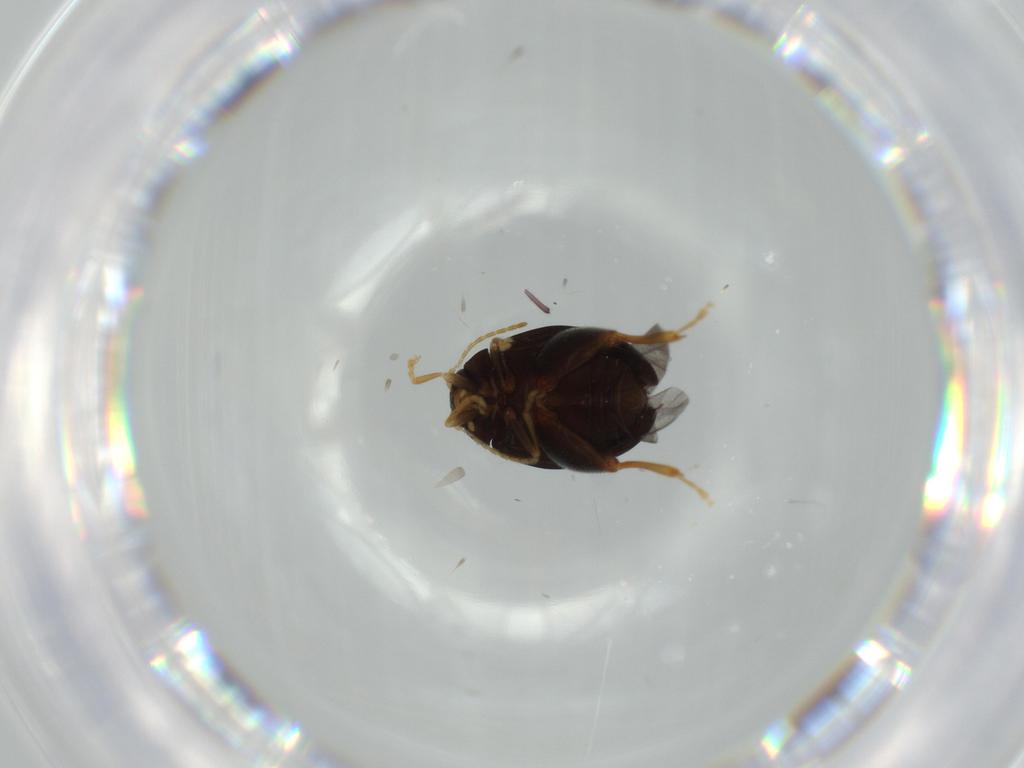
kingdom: Animalia
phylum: Arthropoda
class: Insecta
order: Coleoptera
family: Chrysomelidae
